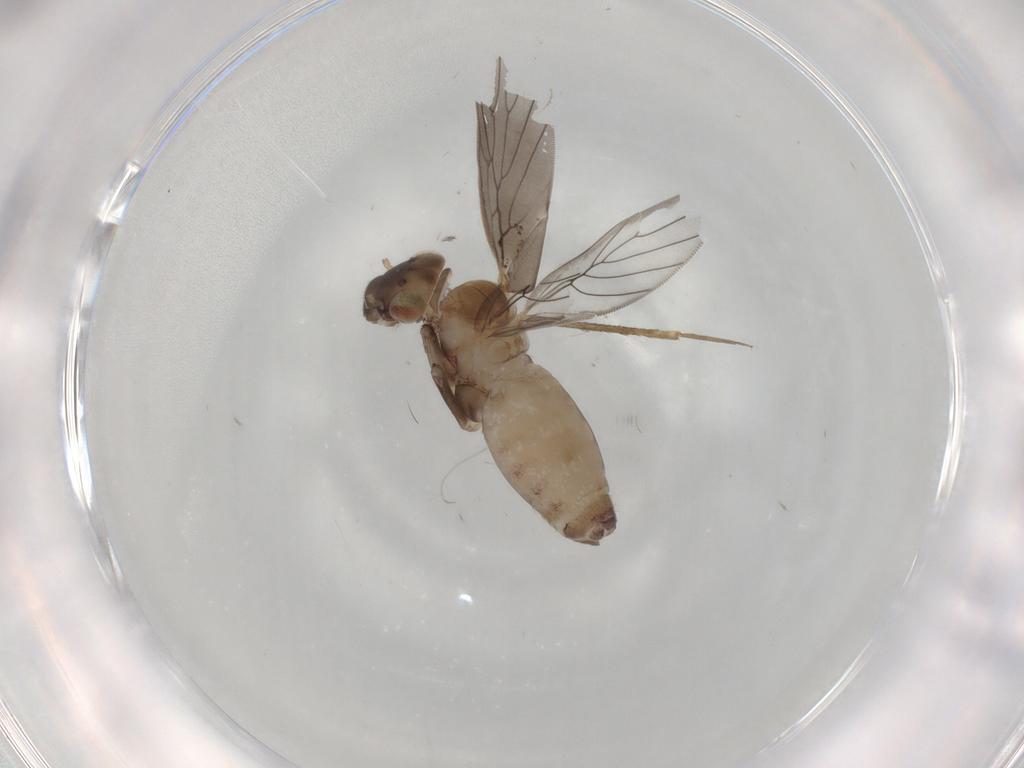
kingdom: Animalia
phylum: Arthropoda
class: Insecta
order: Psocodea
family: Lepidopsocidae
